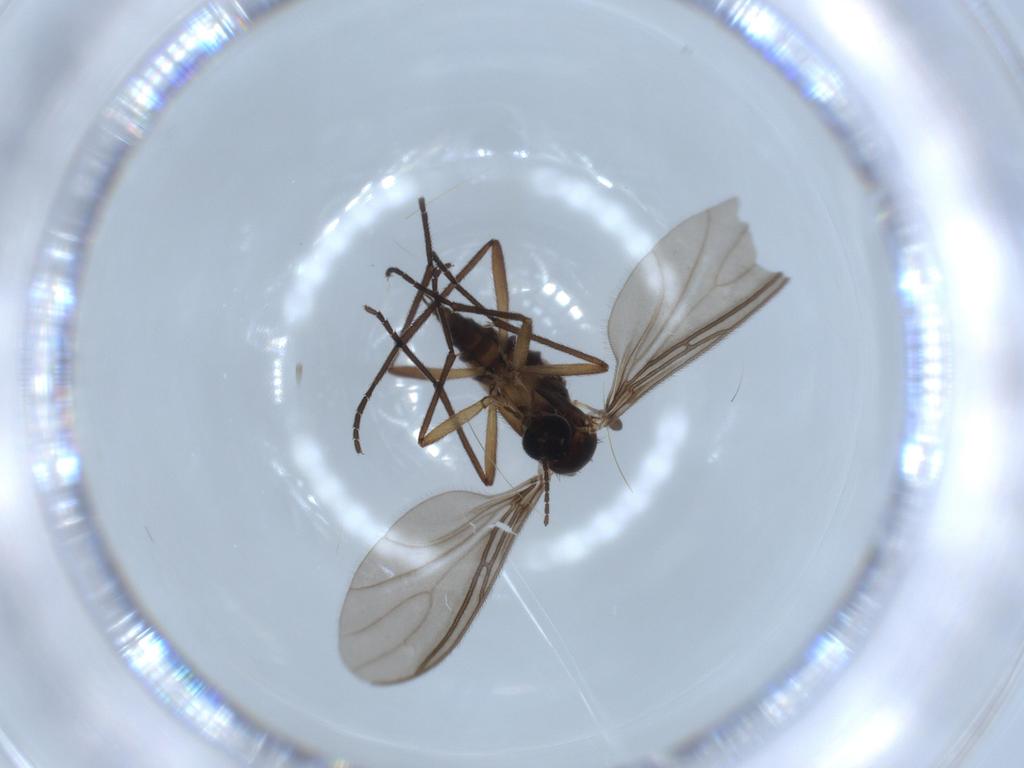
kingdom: Animalia
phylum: Arthropoda
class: Insecta
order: Diptera
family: Sciaridae
